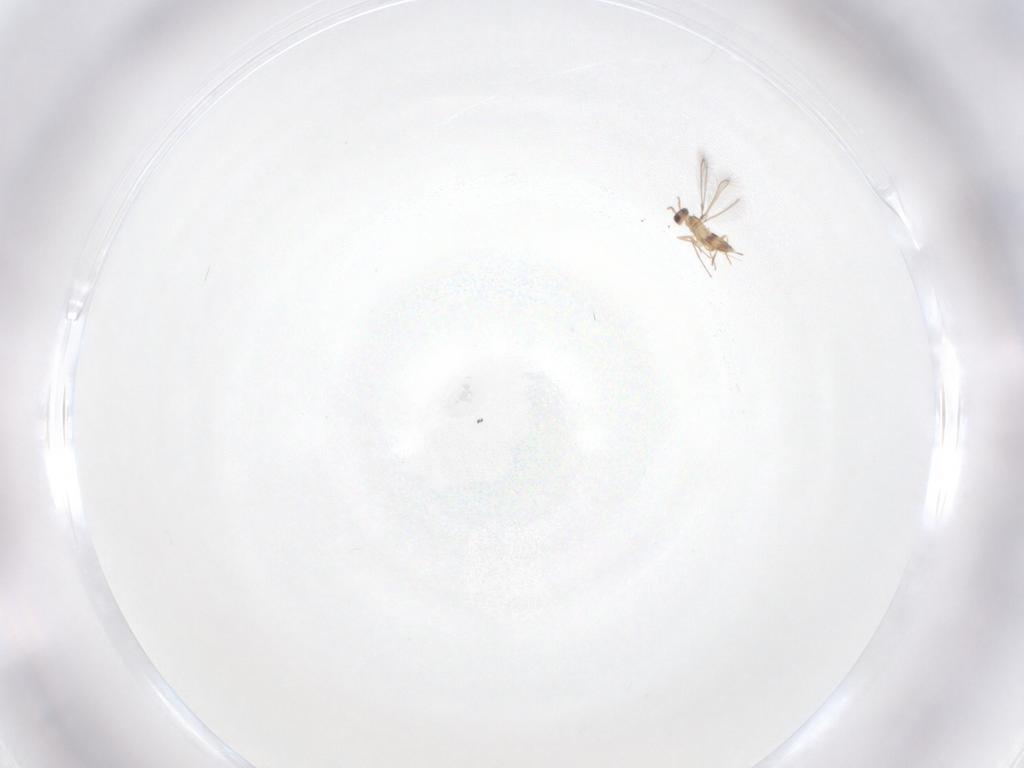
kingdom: Animalia
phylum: Arthropoda
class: Insecta
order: Hymenoptera
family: Mymaridae
